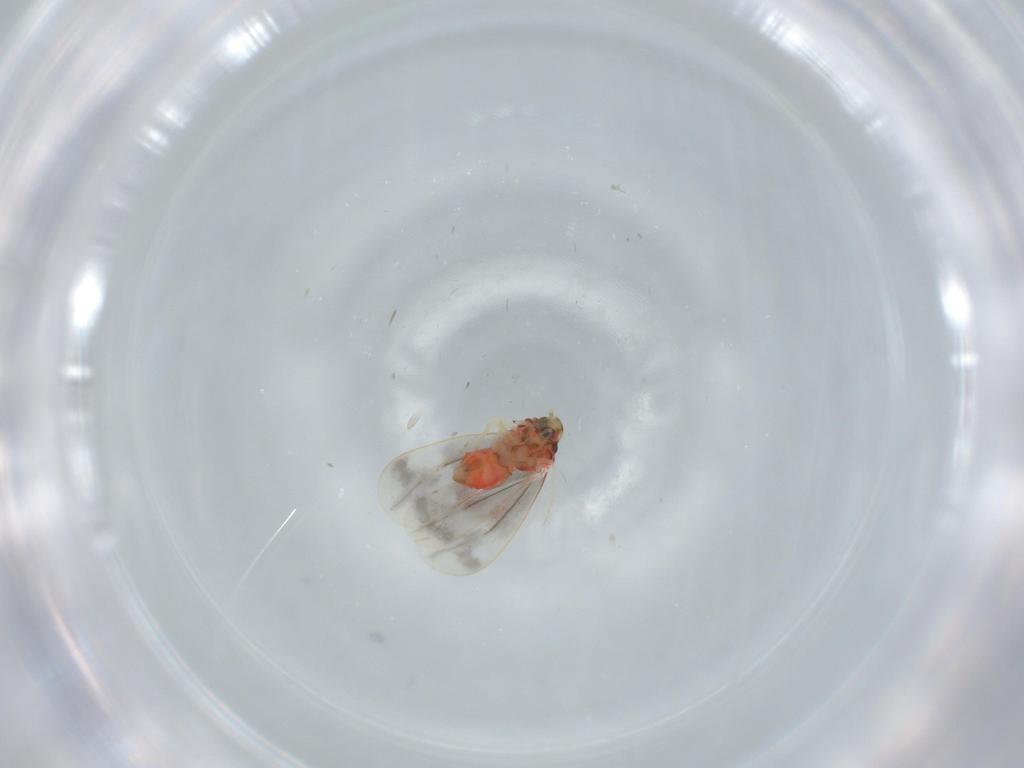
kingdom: Animalia
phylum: Arthropoda
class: Insecta
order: Hemiptera
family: Aleyrodidae
